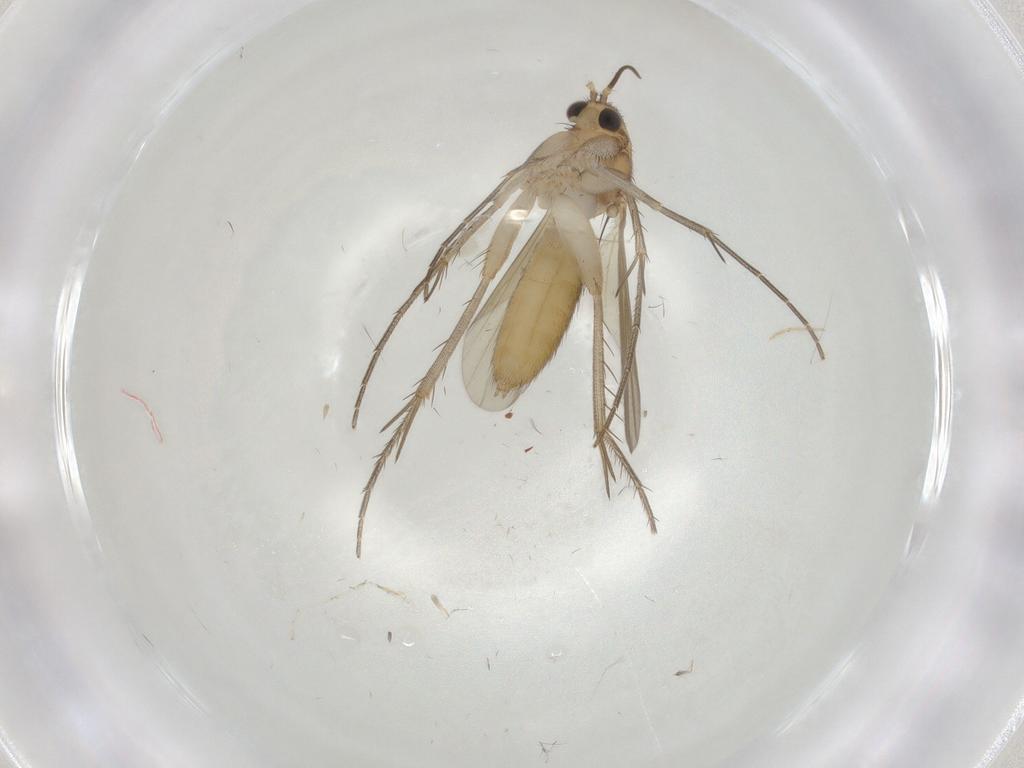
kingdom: Animalia
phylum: Arthropoda
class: Insecta
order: Diptera
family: Mycetophilidae
